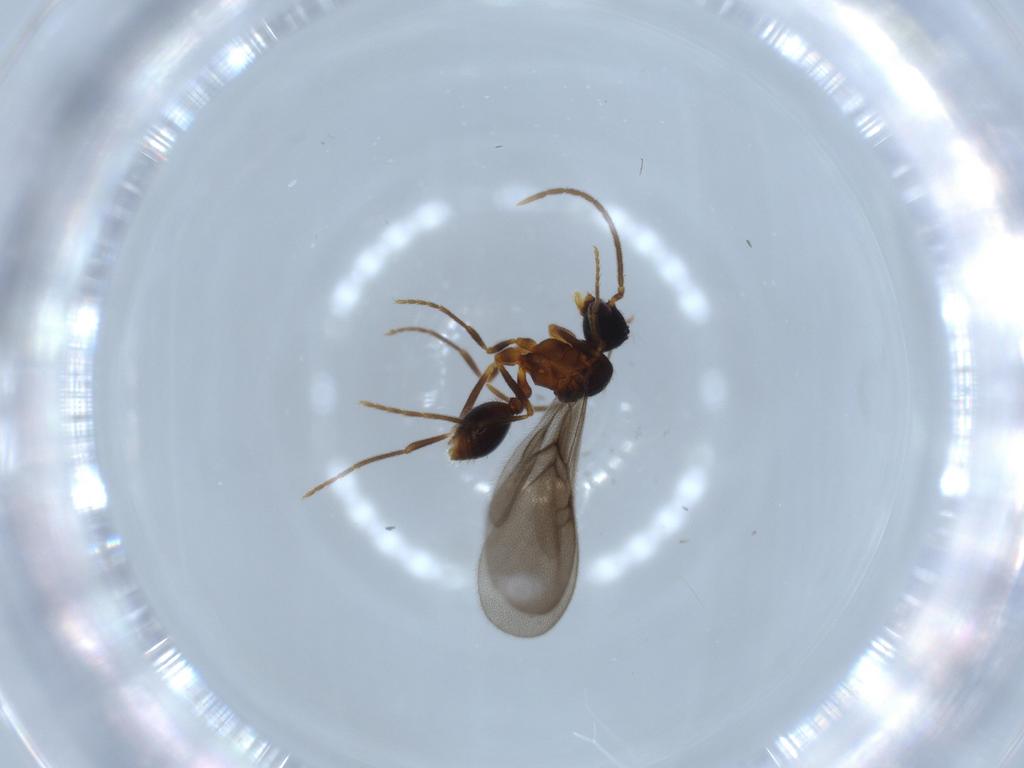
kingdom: Animalia
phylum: Arthropoda
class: Insecta
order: Hymenoptera
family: Formicidae
